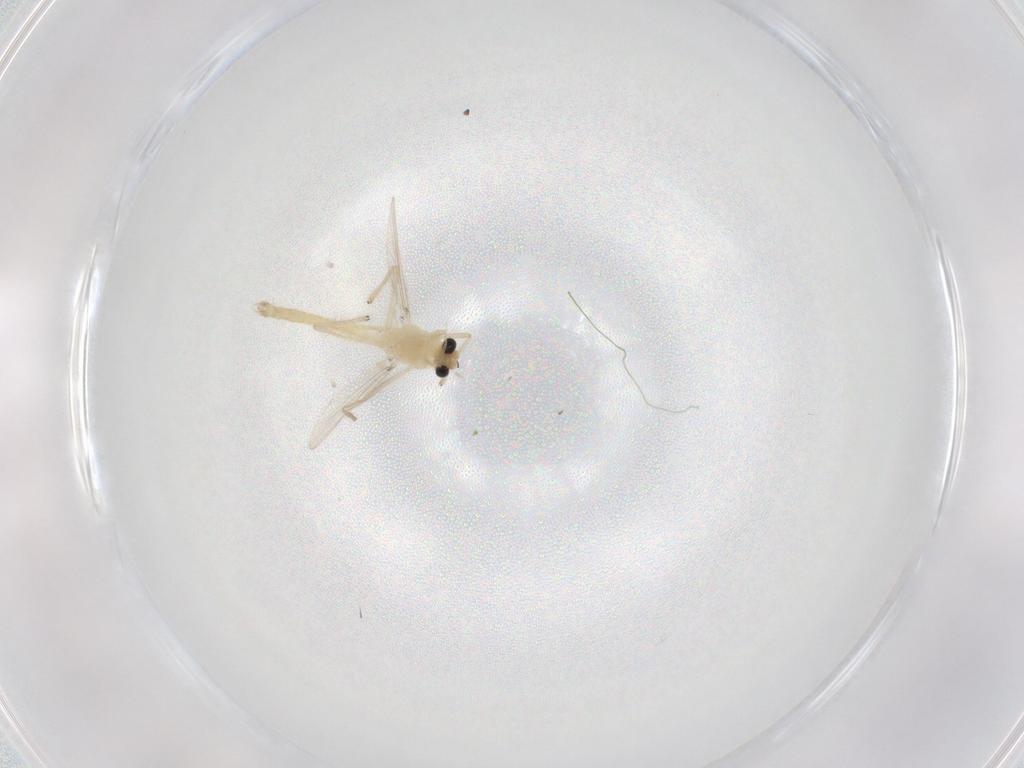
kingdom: Animalia
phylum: Arthropoda
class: Insecta
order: Diptera
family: Chironomidae
